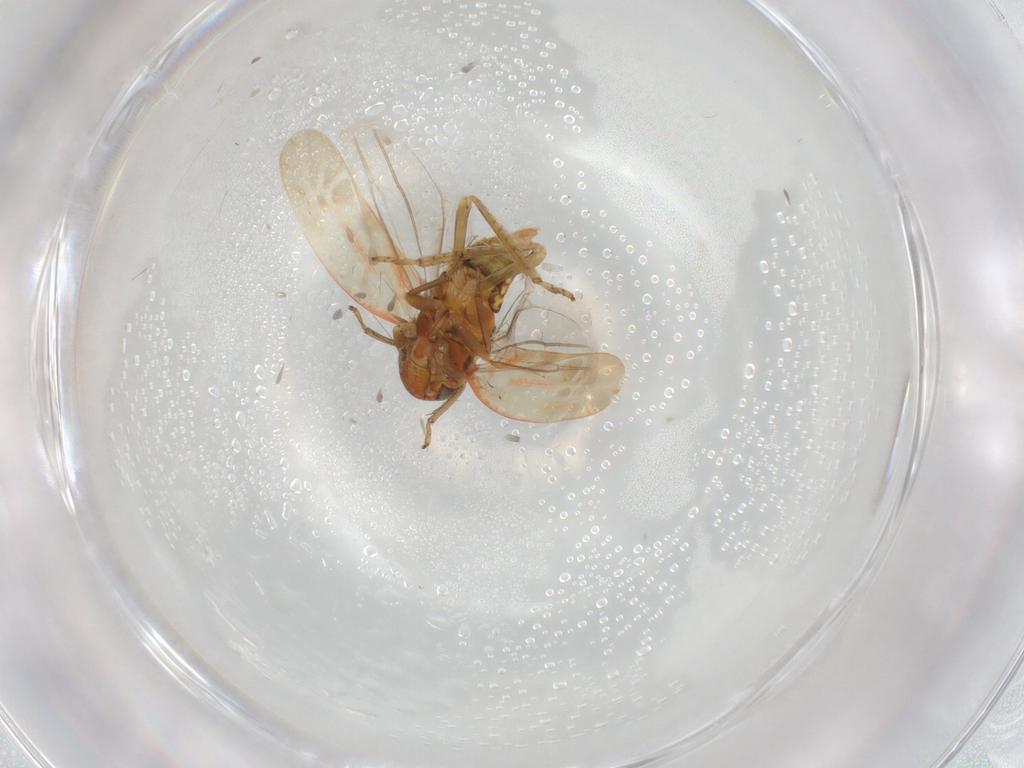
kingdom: Animalia
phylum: Arthropoda
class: Insecta
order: Hemiptera
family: Cicadellidae
